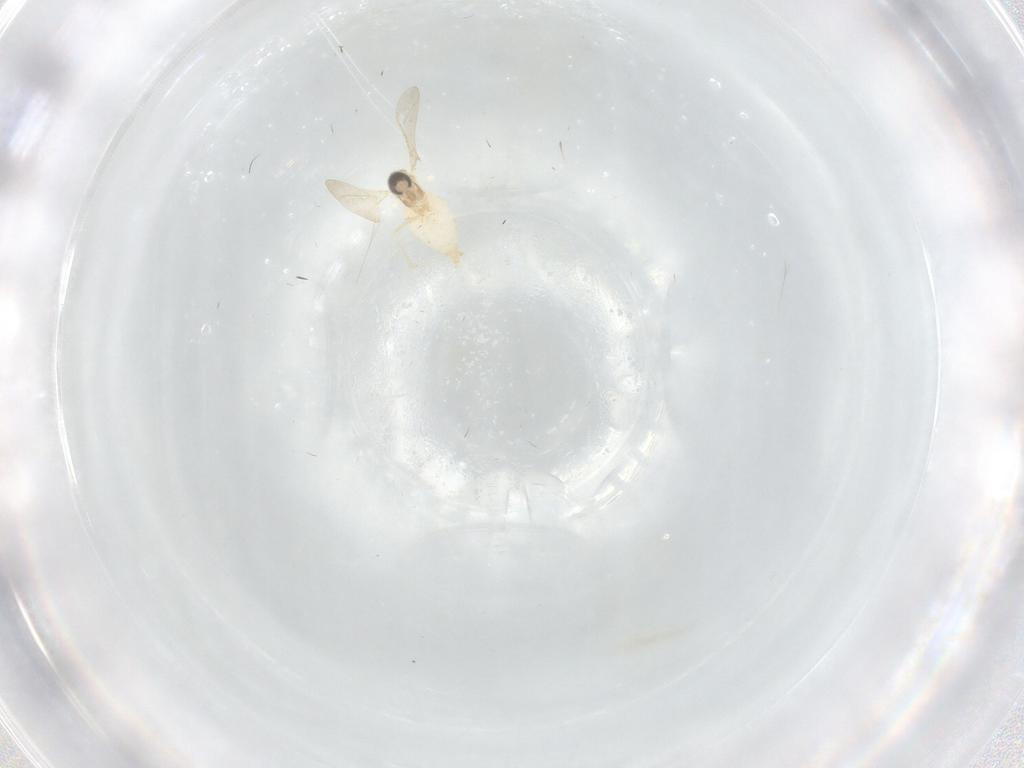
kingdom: Animalia
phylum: Arthropoda
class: Insecta
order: Diptera
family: Cecidomyiidae
